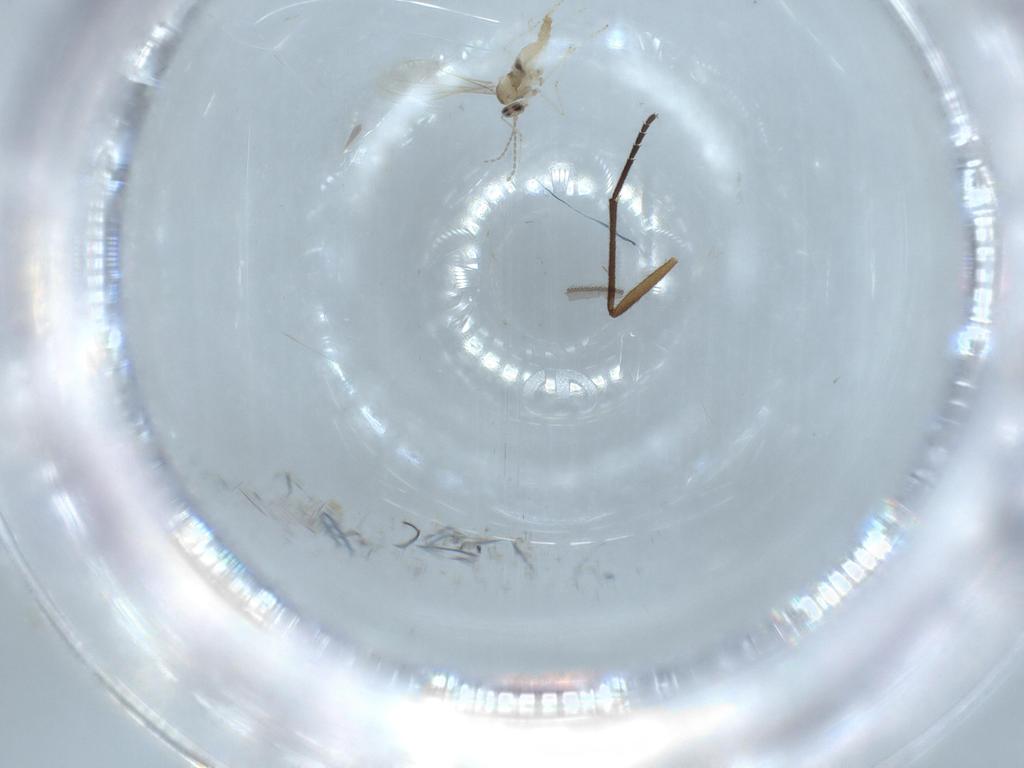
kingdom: Animalia
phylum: Arthropoda
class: Insecta
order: Diptera
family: Cecidomyiidae
